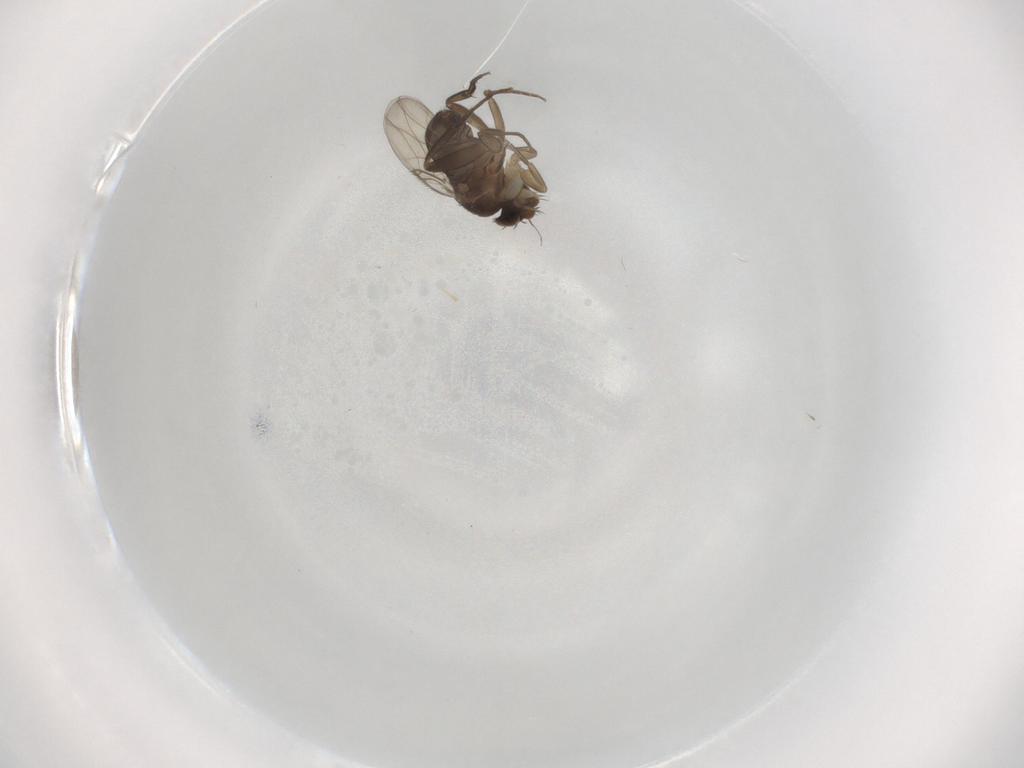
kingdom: Animalia
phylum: Arthropoda
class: Insecta
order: Diptera
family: Phoridae
